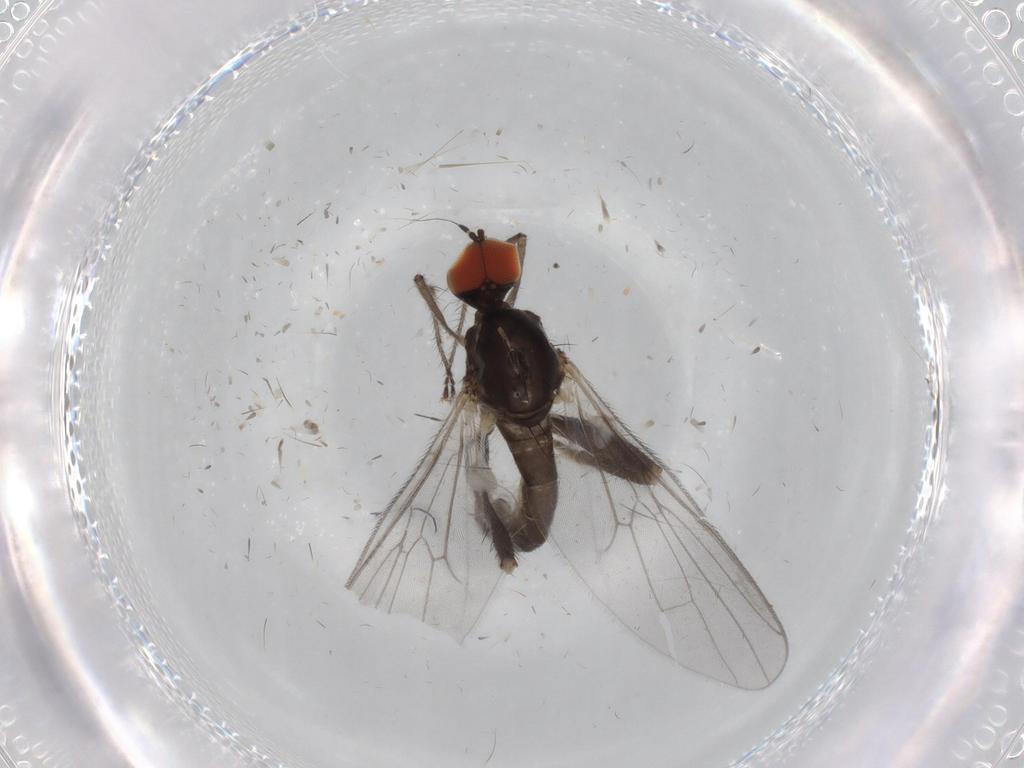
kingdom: Animalia
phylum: Arthropoda
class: Insecta
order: Diptera
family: Hybotidae
